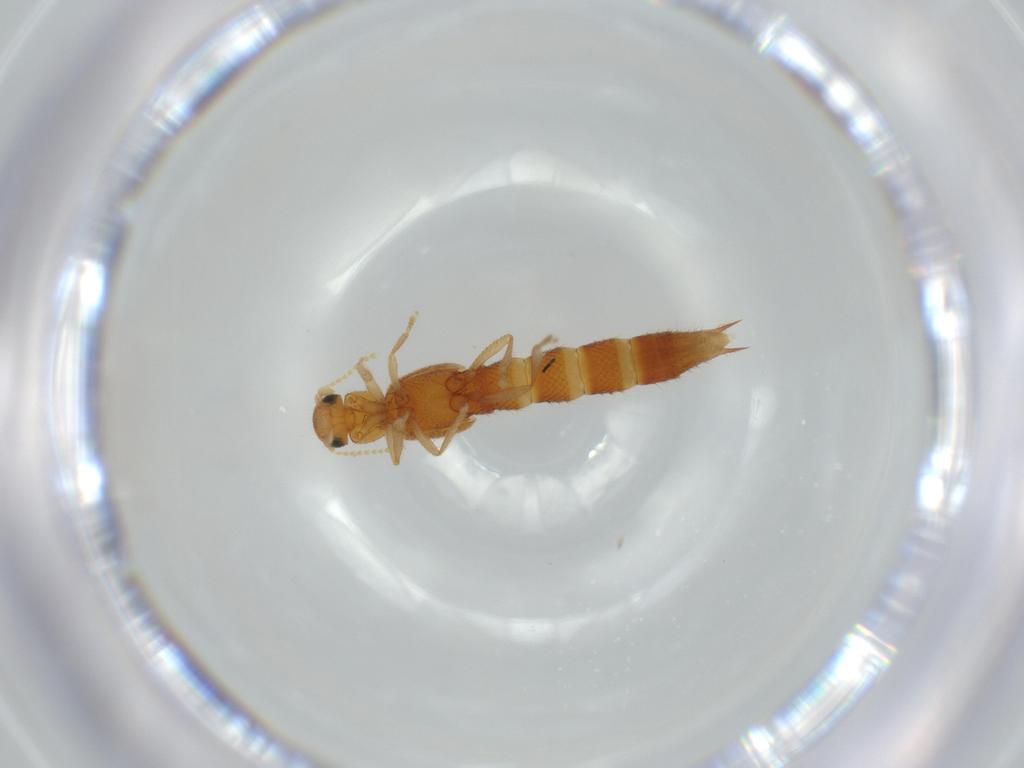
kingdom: Animalia
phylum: Arthropoda
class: Insecta
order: Coleoptera
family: Staphylinidae
